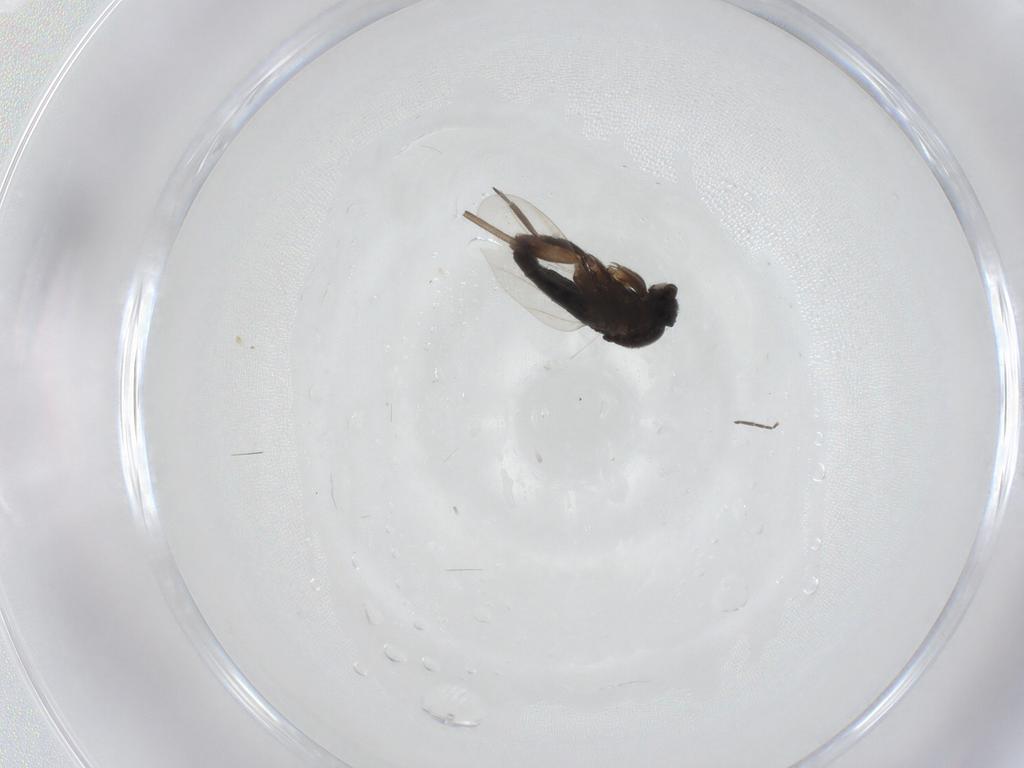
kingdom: Animalia
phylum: Arthropoda
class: Insecta
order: Diptera
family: Phoridae
